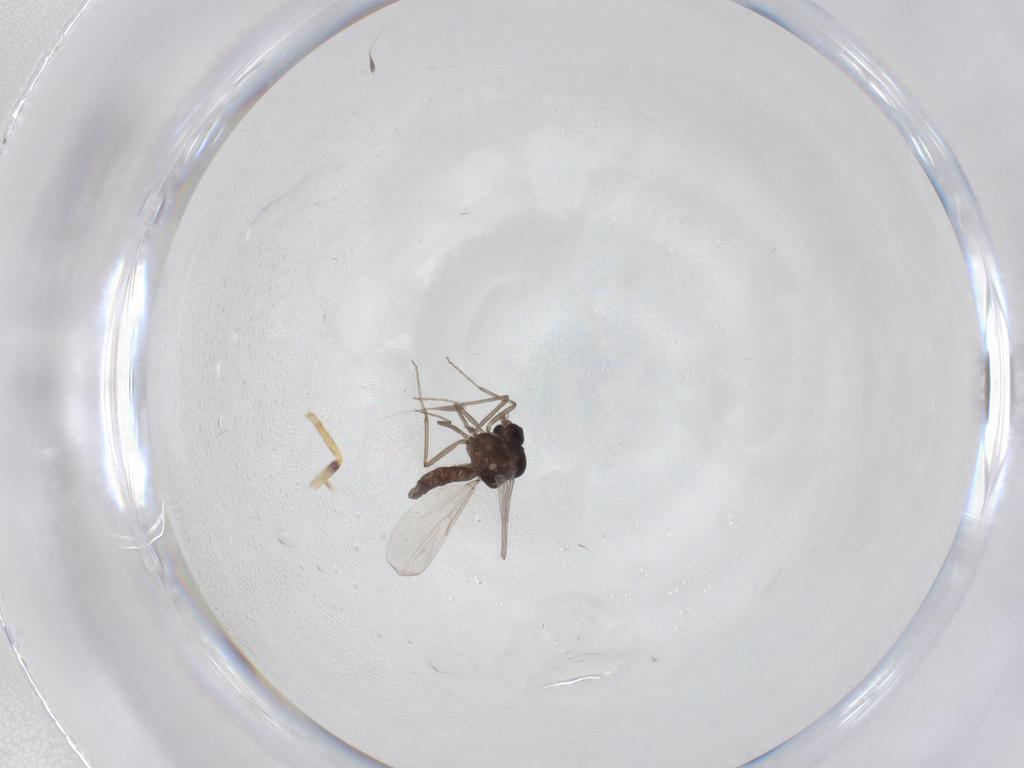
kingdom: Animalia
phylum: Arthropoda
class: Insecta
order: Diptera
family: Ceratopogonidae
